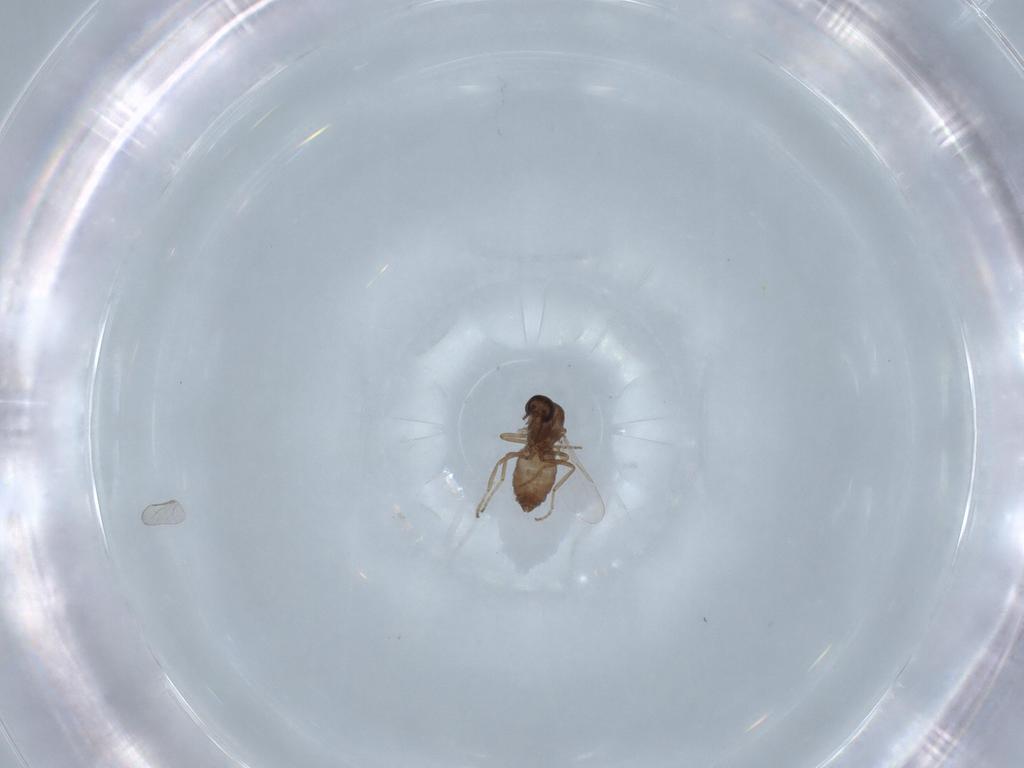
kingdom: Animalia
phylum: Arthropoda
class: Insecta
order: Diptera
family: Ceratopogonidae
